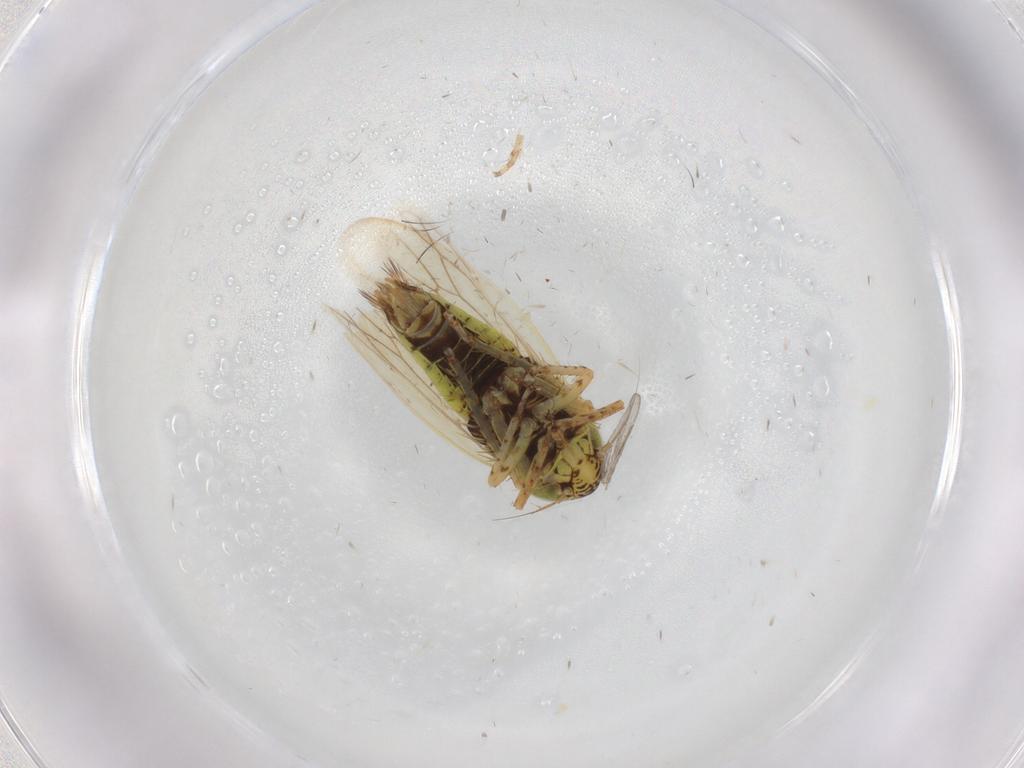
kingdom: Animalia
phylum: Arthropoda
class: Insecta
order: Hemiptera
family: Cicadellidae
